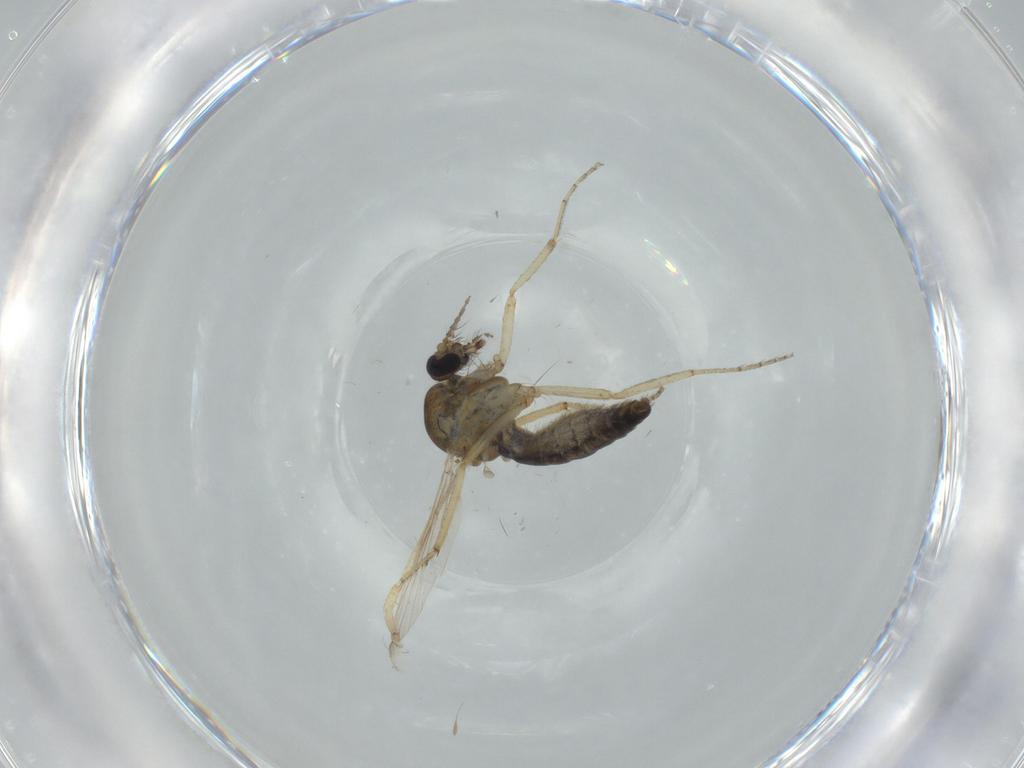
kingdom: Animalia
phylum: Arthropoda
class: Insecta
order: Diptera
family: Ceratopogonidae
